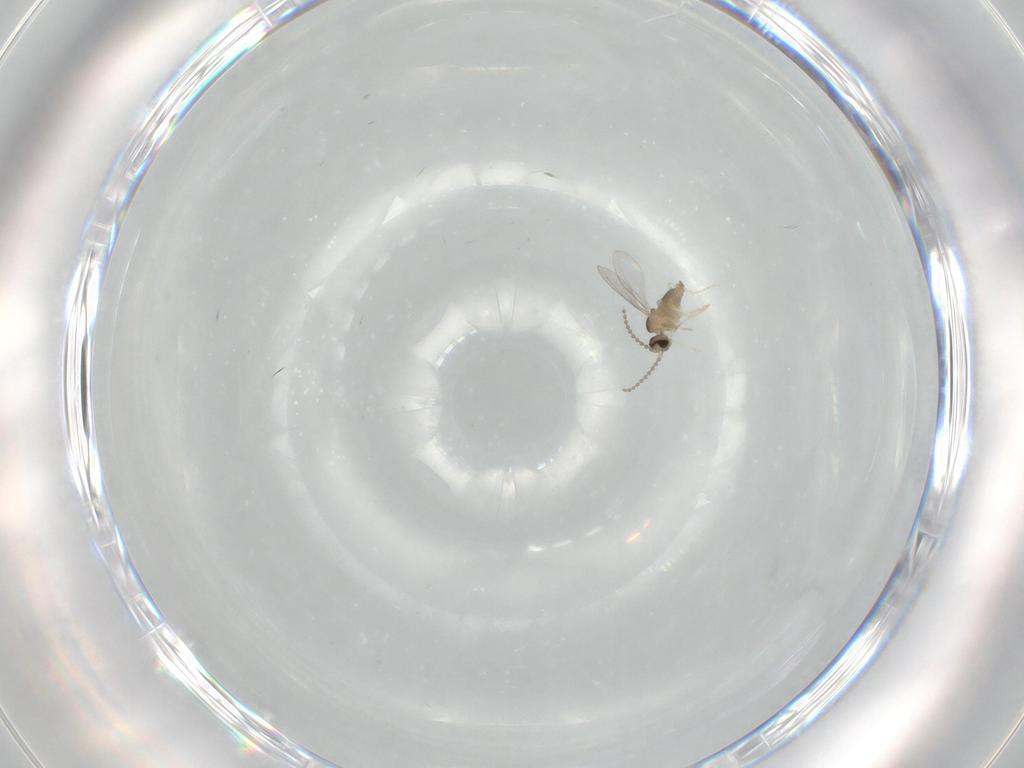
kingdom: Animalia
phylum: Arthropoda
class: Insecta
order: Diptera
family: Cecidomyiidae
